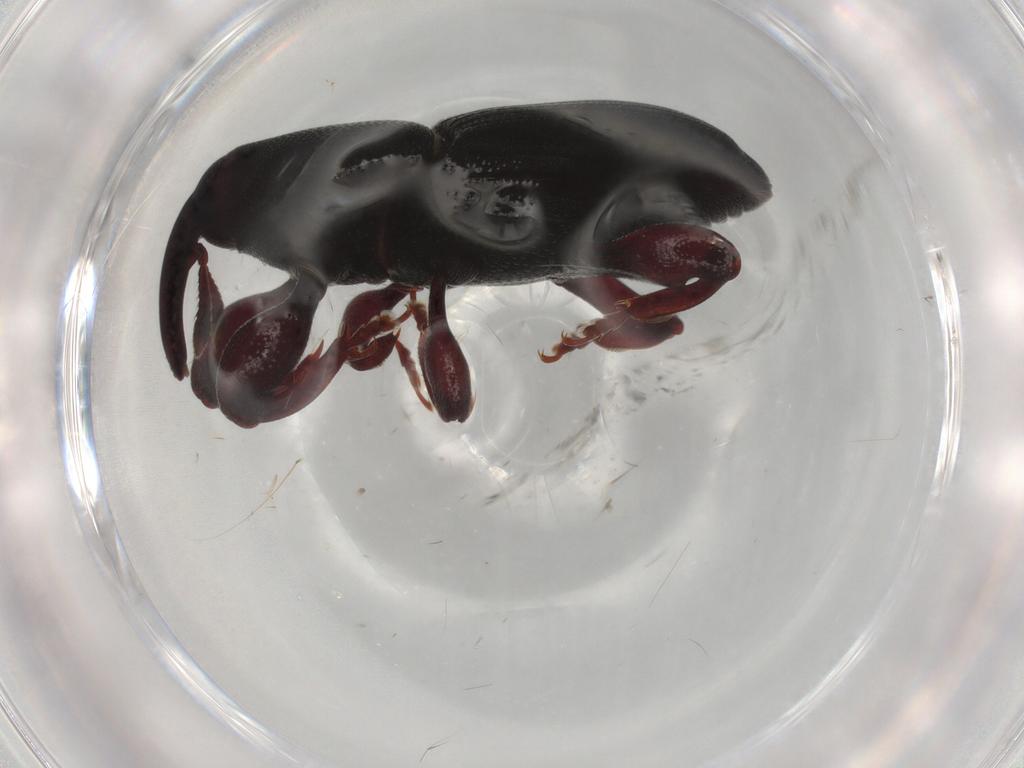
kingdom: Animalia
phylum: Arthropoda
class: Insecta
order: Coleoptera
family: Curculionidae
